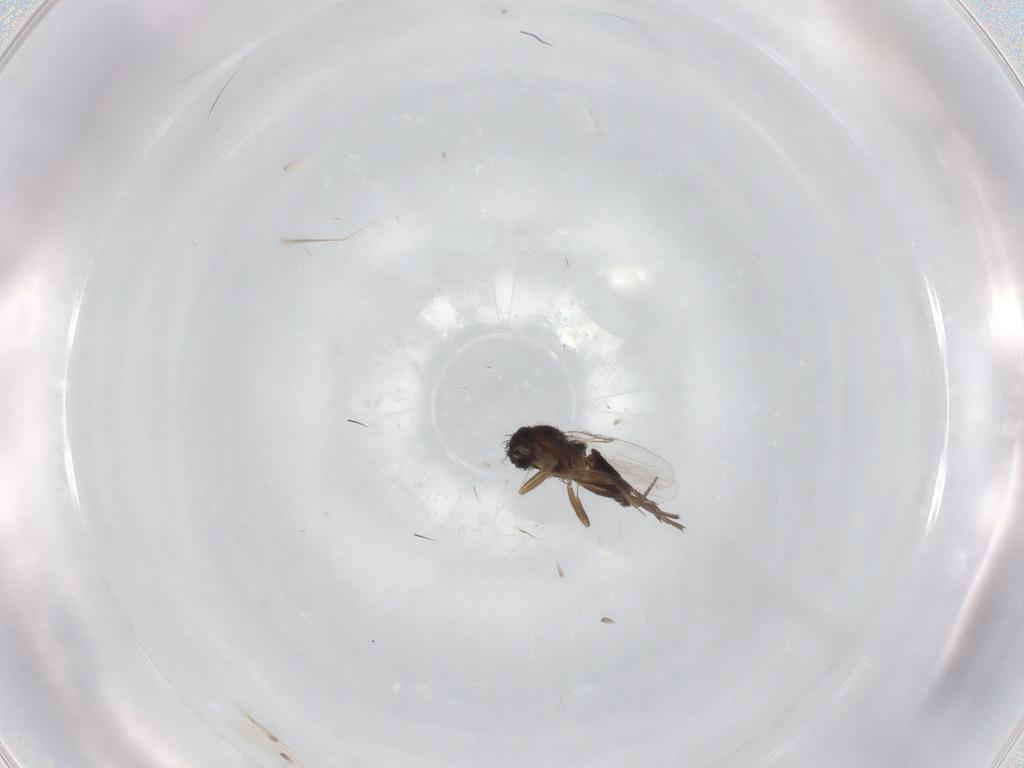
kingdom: Animalia
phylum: Arthropoda
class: Insecta
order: Diptera
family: Phoridae
